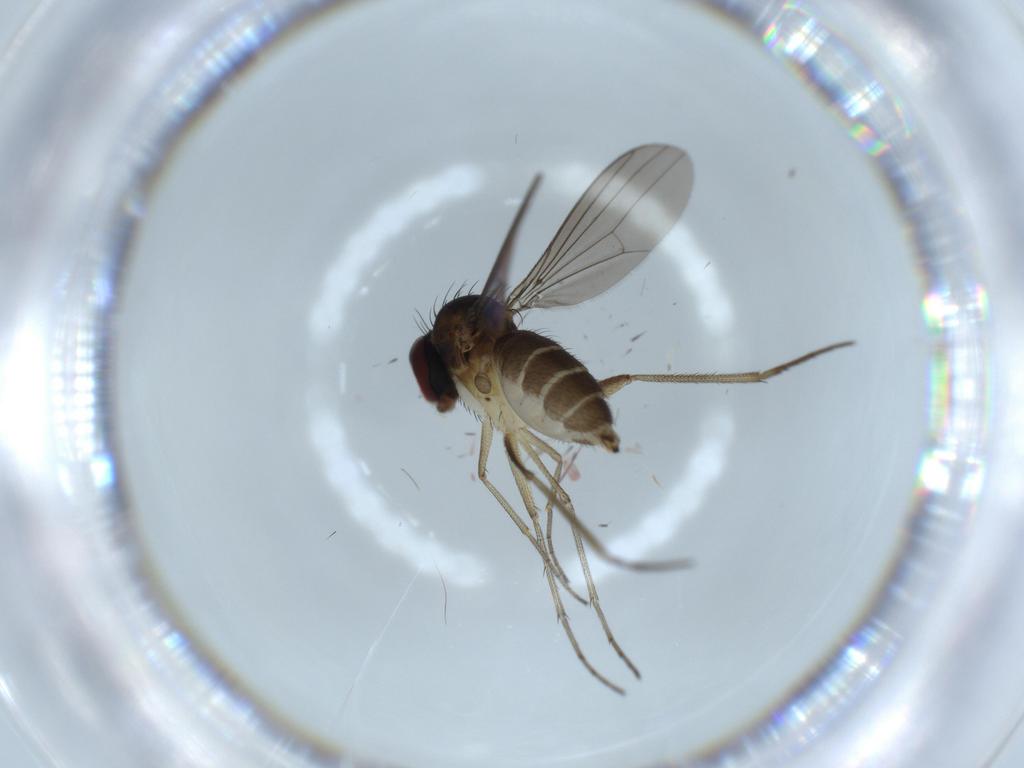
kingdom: Animalia
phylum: Arthropoda
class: Insecta
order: Diptera
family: Dolichopodidae
